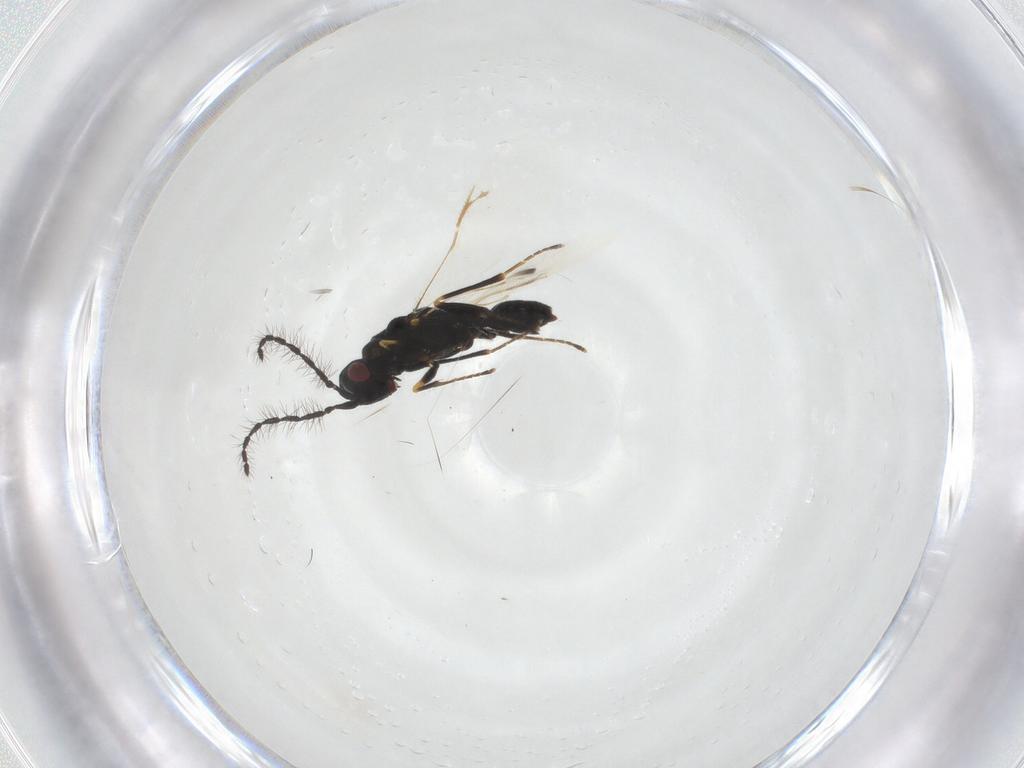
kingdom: Animalia
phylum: Arthropoda
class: Insecta
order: Hymenoptera
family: Eurytomidae
